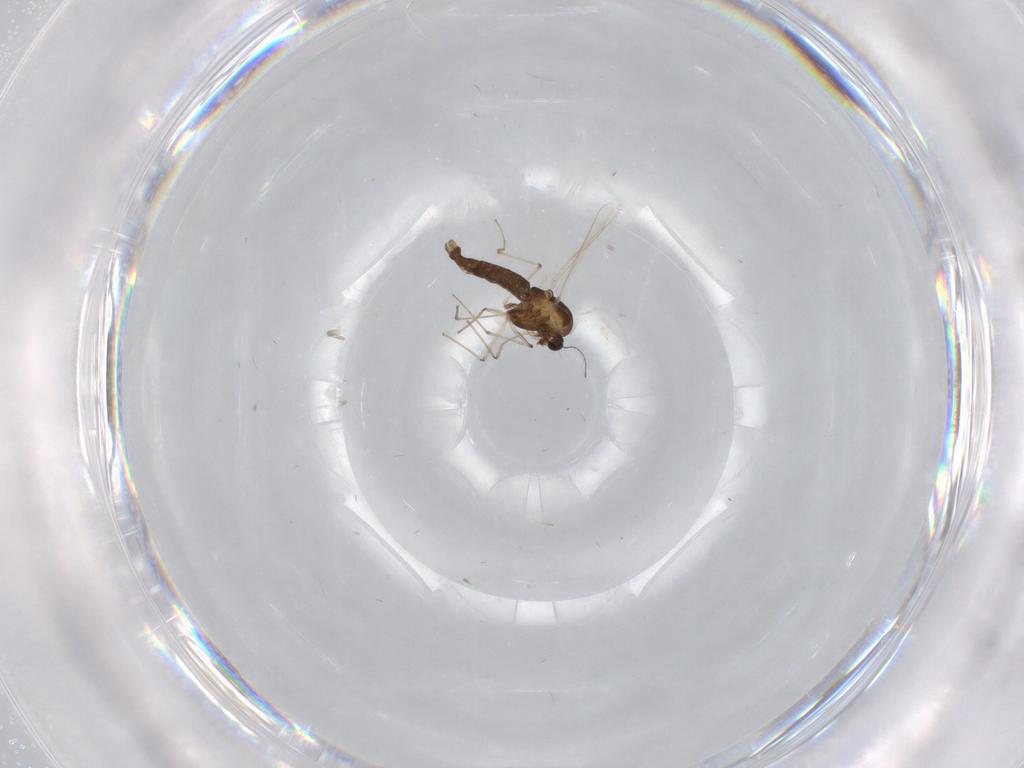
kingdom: Animalia
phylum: Arthropoda
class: Insecta
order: Diptera
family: Chironomidae
